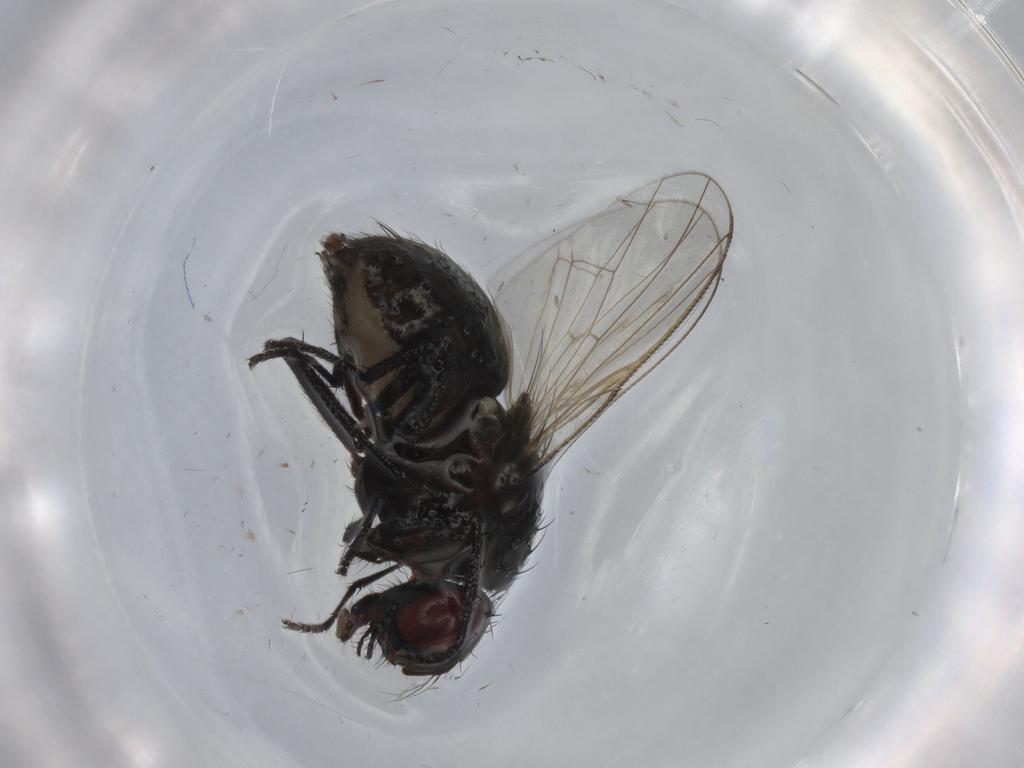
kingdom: Animalia
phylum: Arthropoda
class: Insecta
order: Diptera
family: Muscidae
